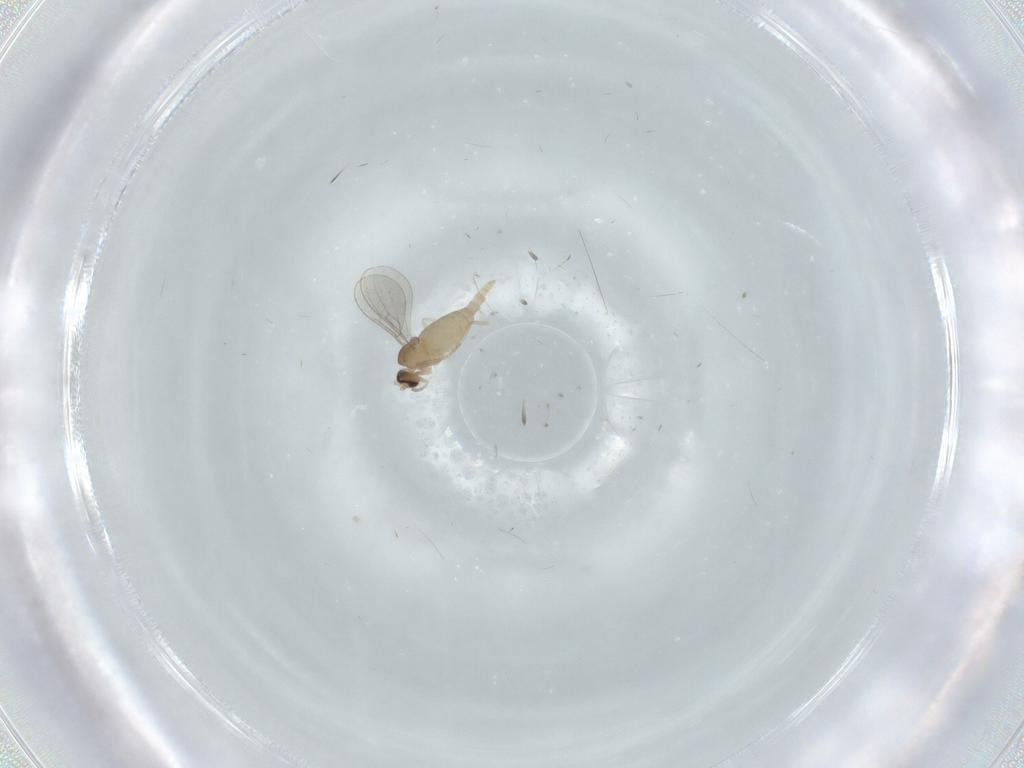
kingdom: Animalia
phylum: Arthropoda
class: Insecta
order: Diptera
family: Cecidomyiidae
